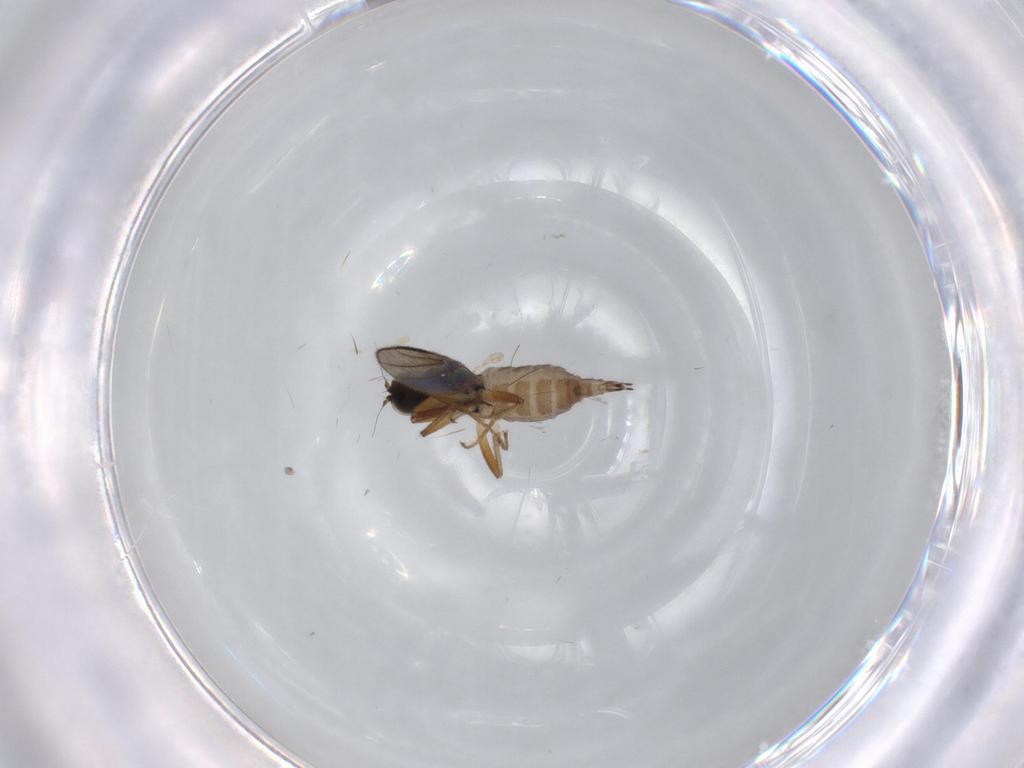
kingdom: Animalia
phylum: Arthropoda
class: Insecta
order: Diptera
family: Hybotidae
